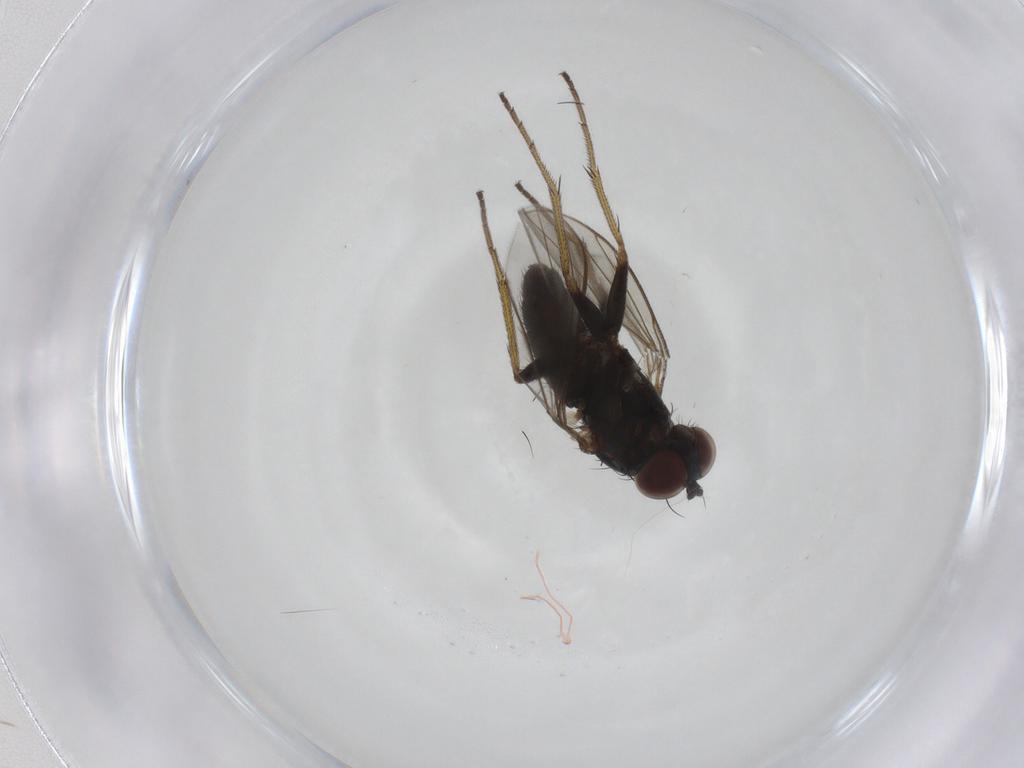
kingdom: Animalia
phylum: Arthropoda
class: Insecta
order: Diptera
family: Dolichopodidae
